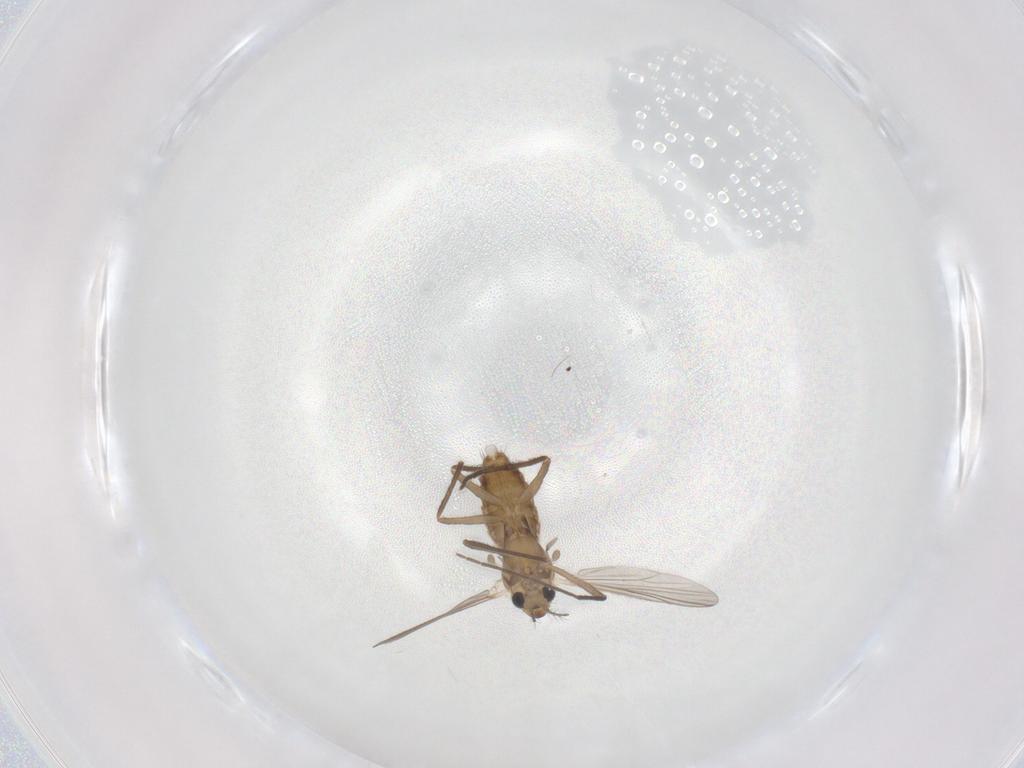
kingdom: Animalia
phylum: Arthropoda
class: Insecta
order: Diptera
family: Chironomidae
